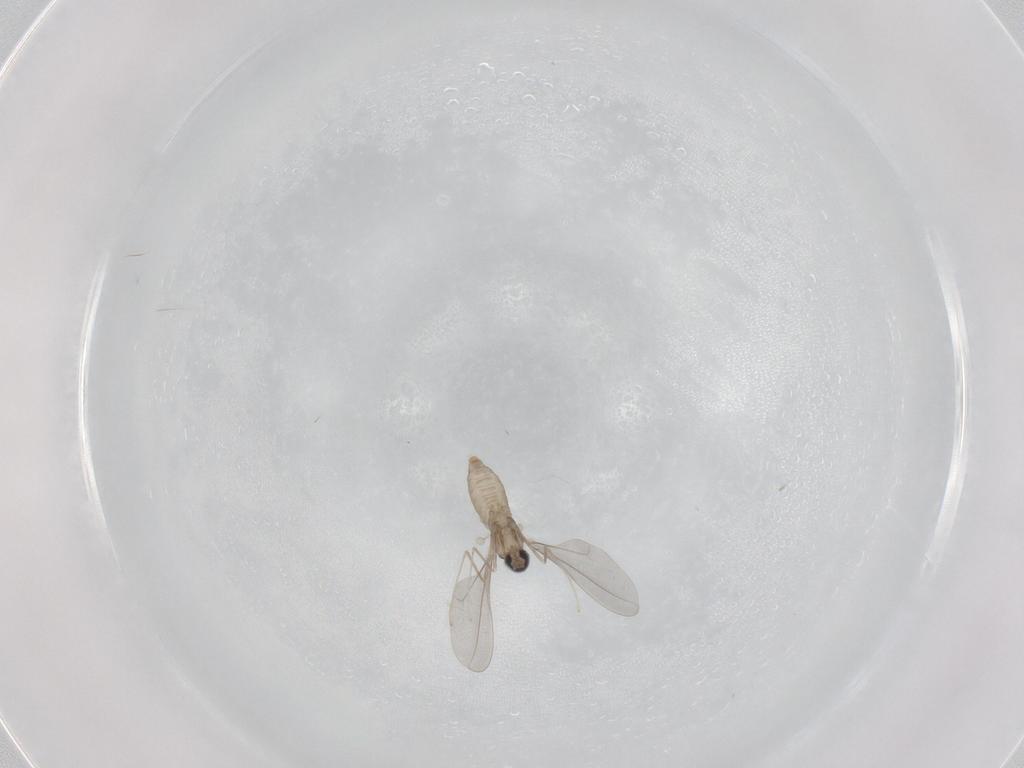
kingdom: Animalia
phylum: Arthropoda
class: Insecta
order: Diptera
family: Cecidomyiidae
